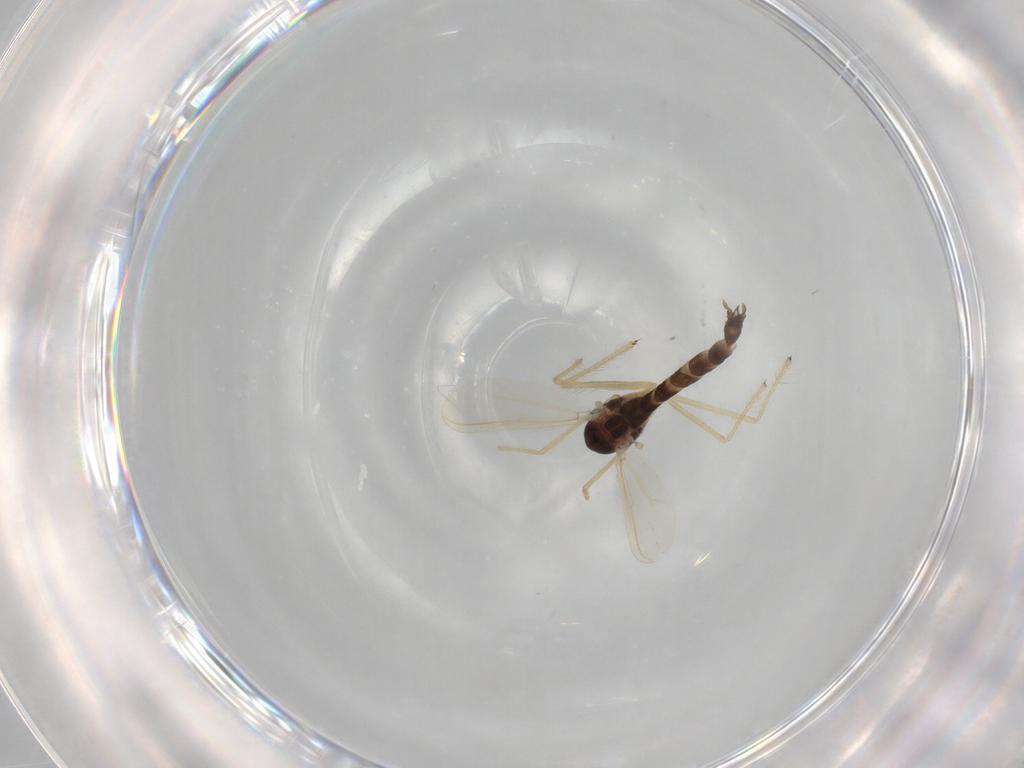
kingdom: Animalia
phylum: Arthropoda
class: Insecta
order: Diptera
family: Chironomidae
